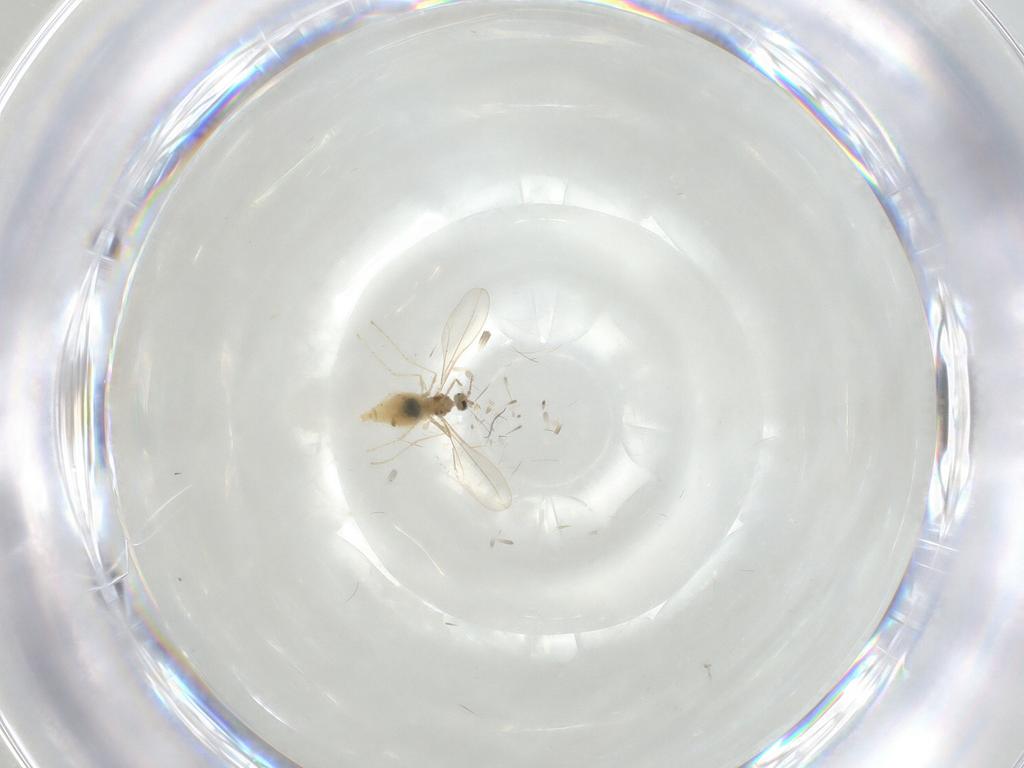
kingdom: Animalia
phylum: Arthropoda
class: Insecta
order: Diptera
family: Cecidomyiidae
